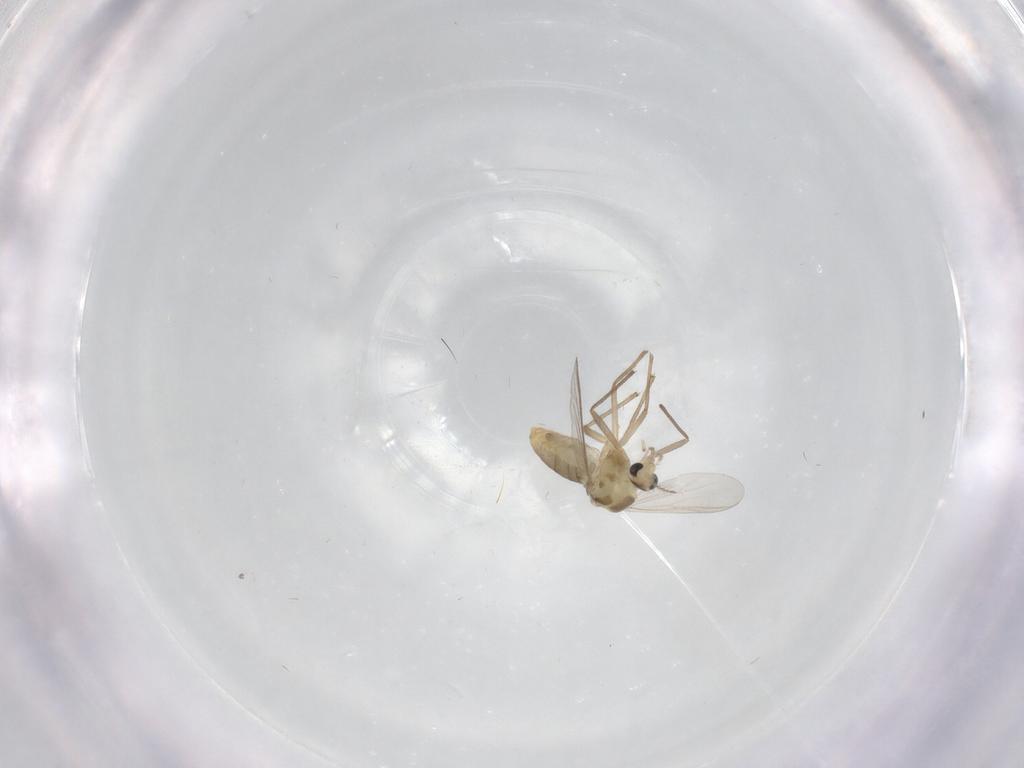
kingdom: Animalia
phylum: Arthropoda
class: Insecta
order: Diptera
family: Cecidomyiidae
